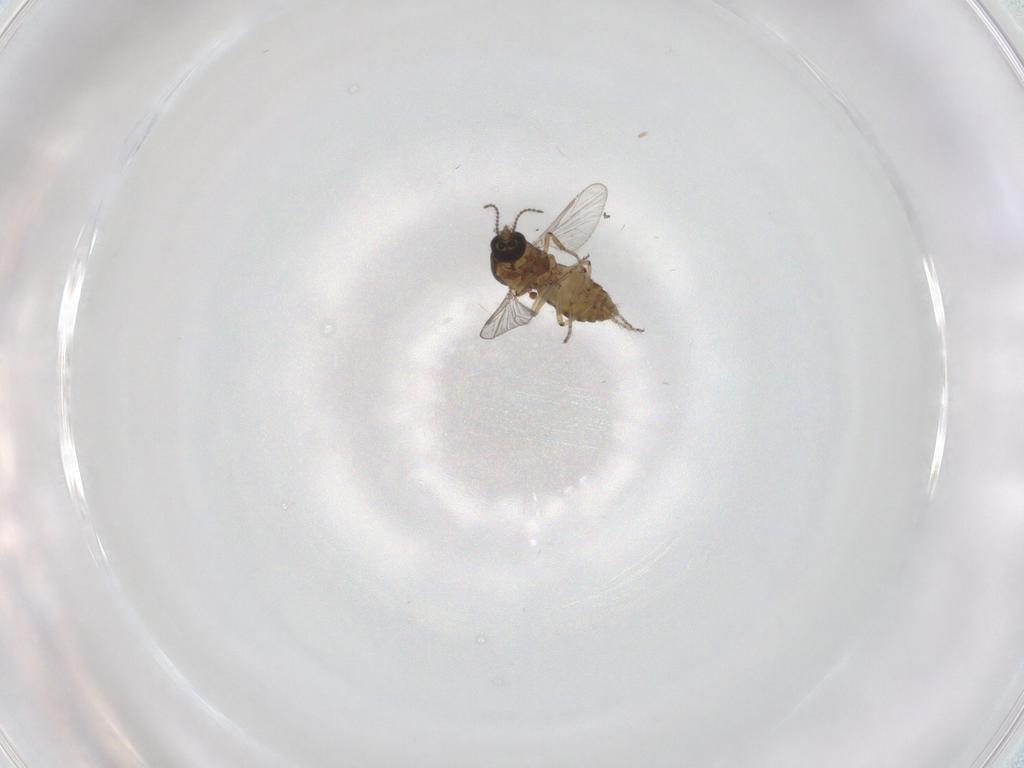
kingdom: Animalia
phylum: Arthropoda
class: Insecta
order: Diptera
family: Ceratopogonidae
